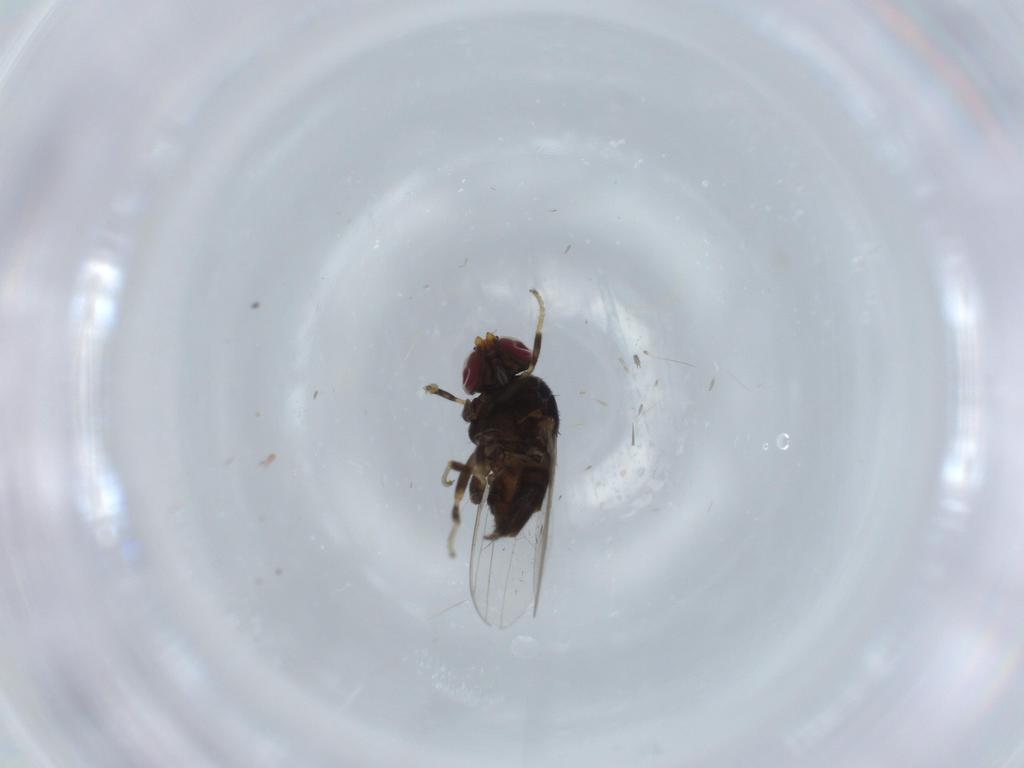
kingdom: Animalia
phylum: Arthropoda
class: Insecta
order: Diptera
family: Chloropidae
